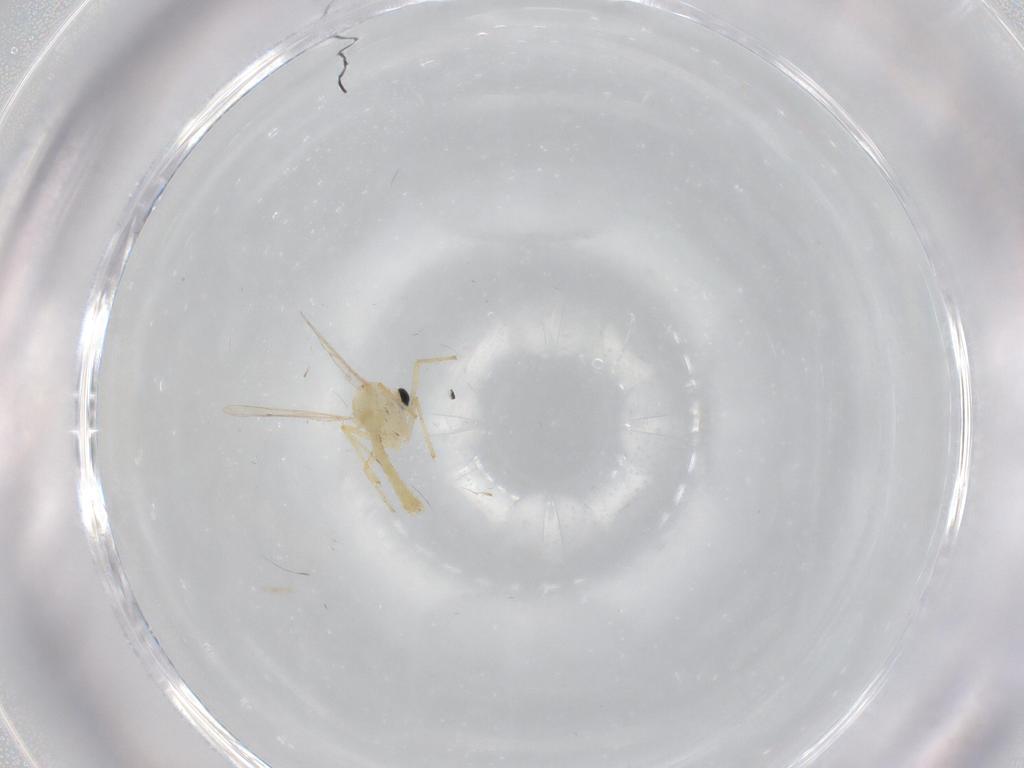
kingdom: Animalia
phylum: Arthropoda
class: Insecta
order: Diptera
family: Chironomidae
